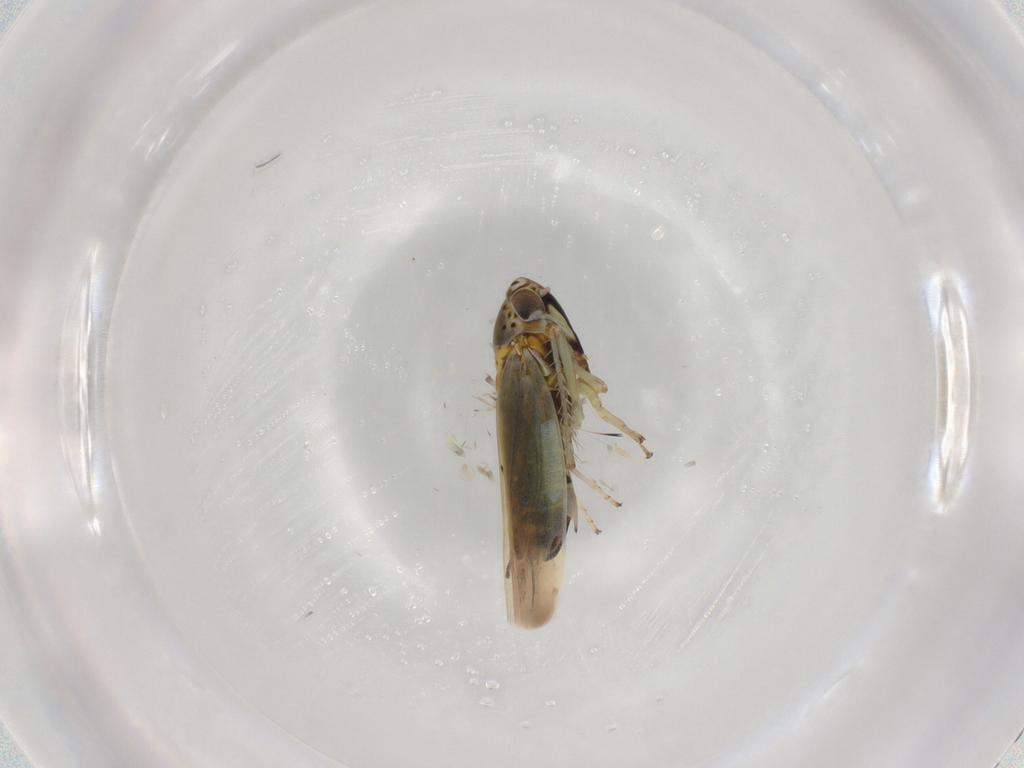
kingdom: Animalia
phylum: Arthropoda
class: Insecta
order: Hemiptera
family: Cicadellidae
